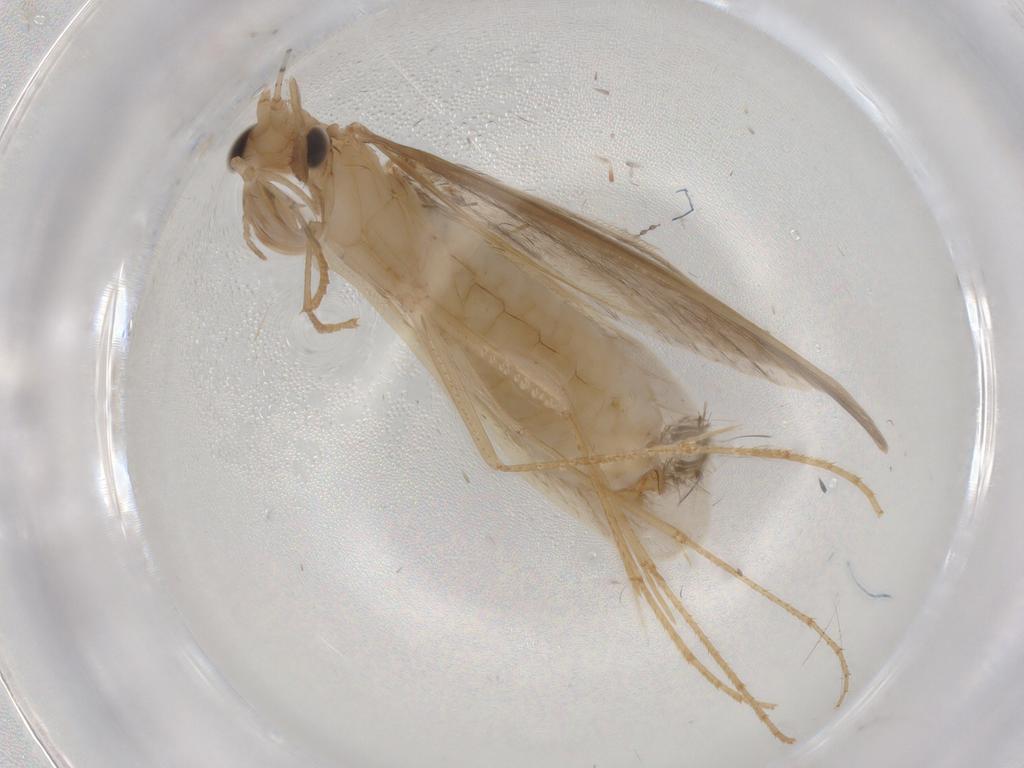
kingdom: Animalia
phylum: Arthropoda
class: Insecta
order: Trichoptera
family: Leptoceridae
